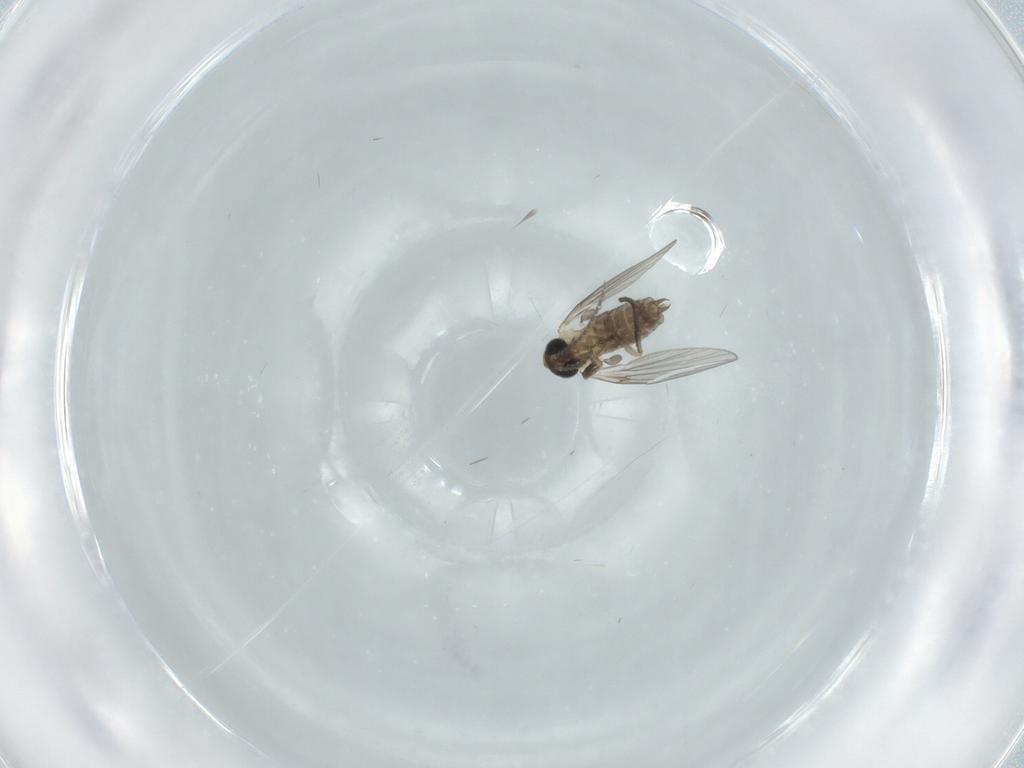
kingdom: Animalia
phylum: Arthropoda
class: Insecta
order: Diptera
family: Psychodidae
